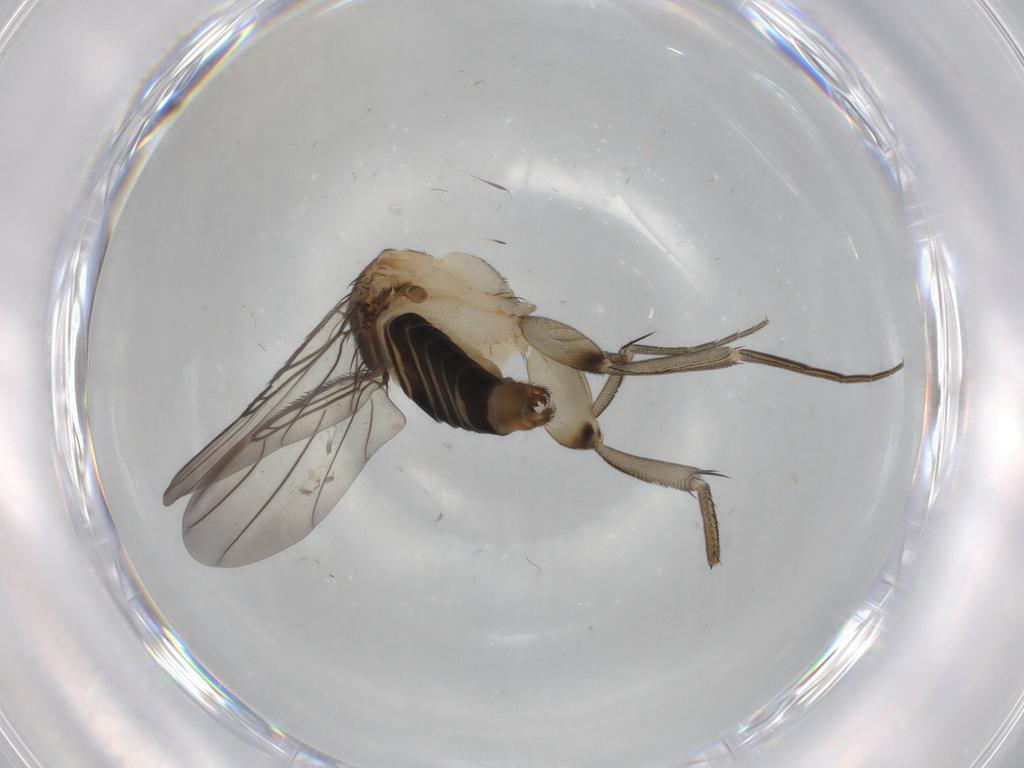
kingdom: Animalia
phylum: Arthropoda
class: Insecta
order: Diptera
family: Phoridae
